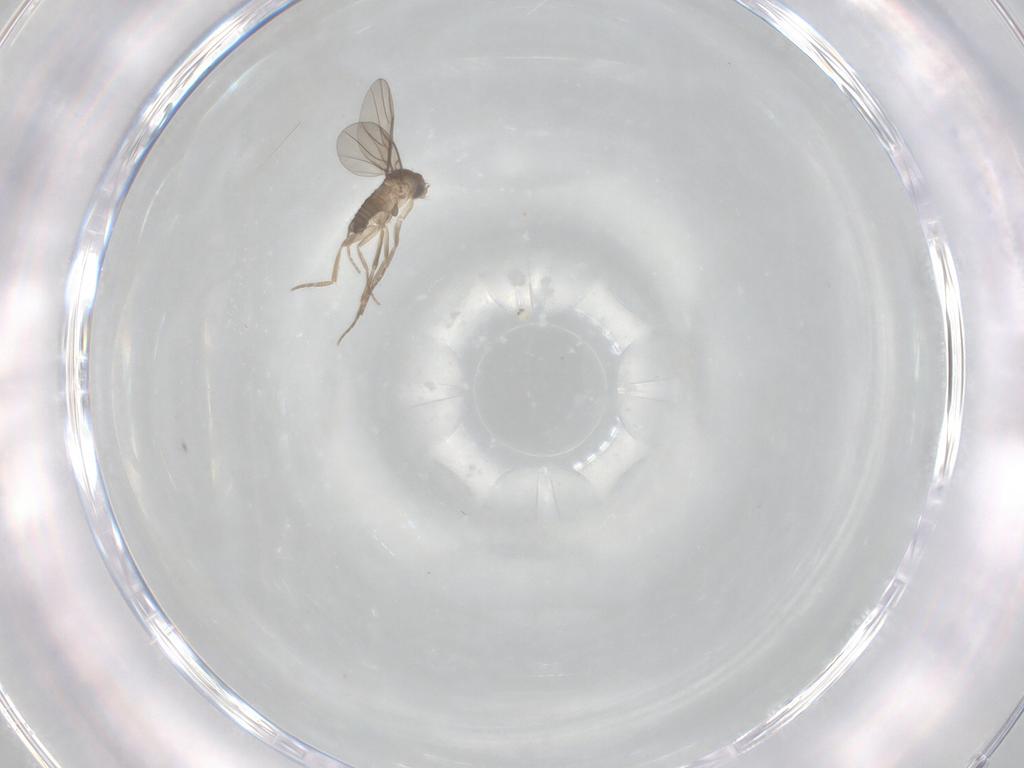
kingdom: Animalia
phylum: Arthropoda
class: Insecta
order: Diptera
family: Phoridae
